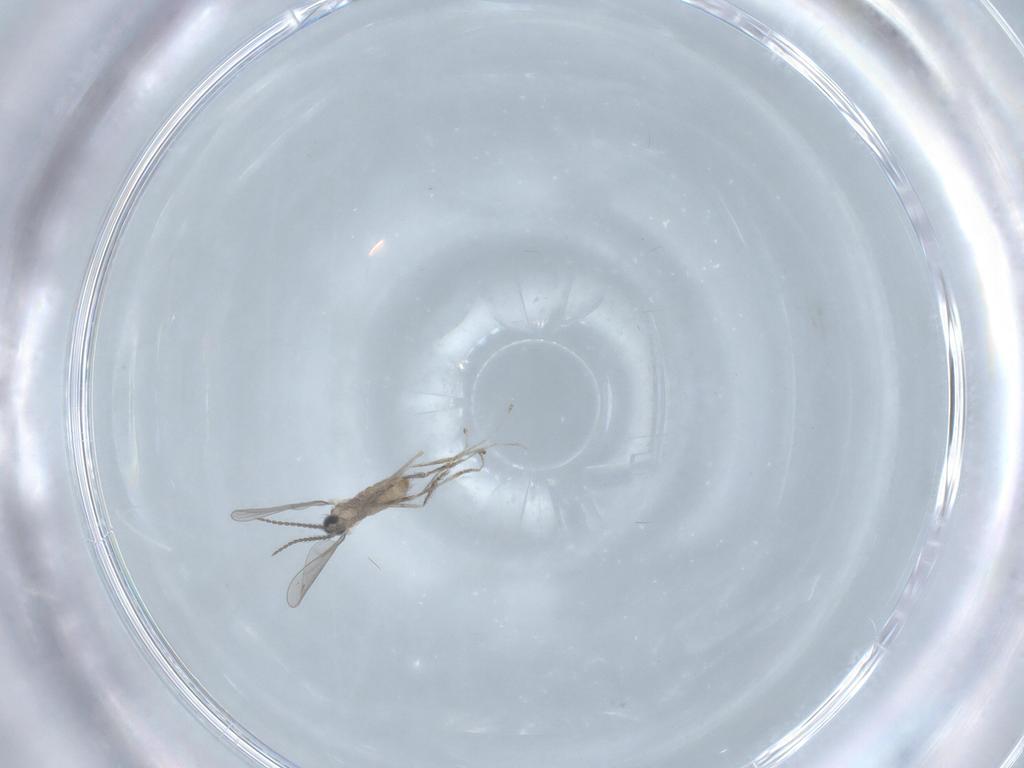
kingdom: Animalia
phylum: Arthropoda
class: Insecta
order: Diptera
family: Cecidomyiidae
